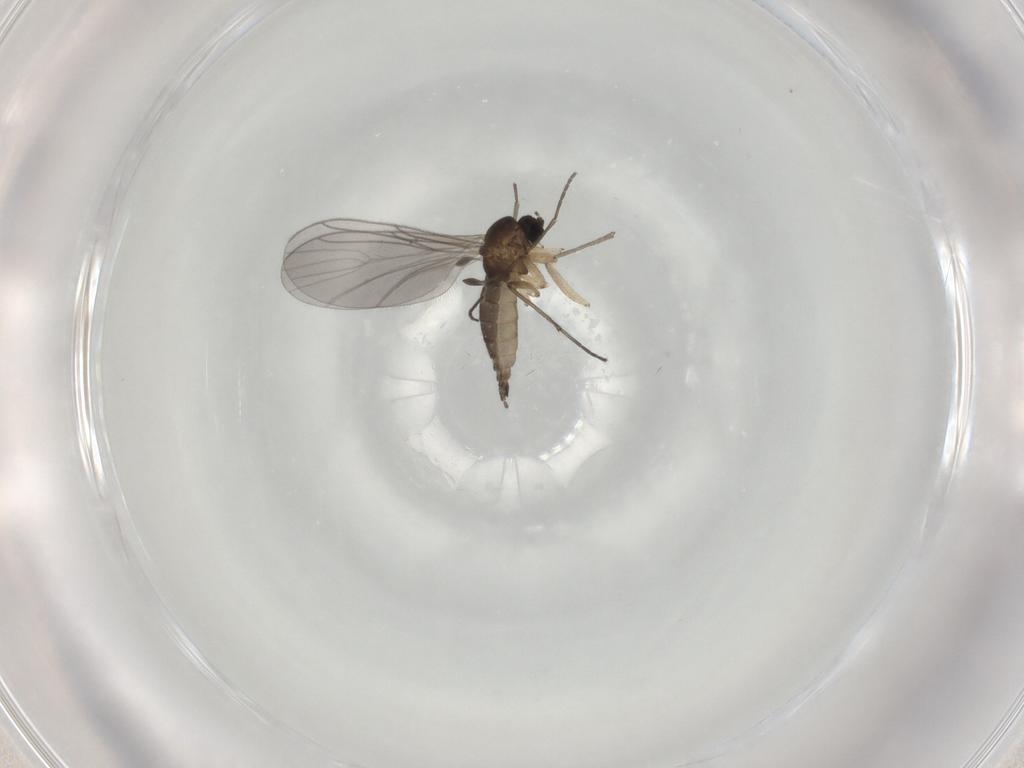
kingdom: Animalia
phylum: Arthropoda
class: Insecta
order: Diptera
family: Sciaridae
